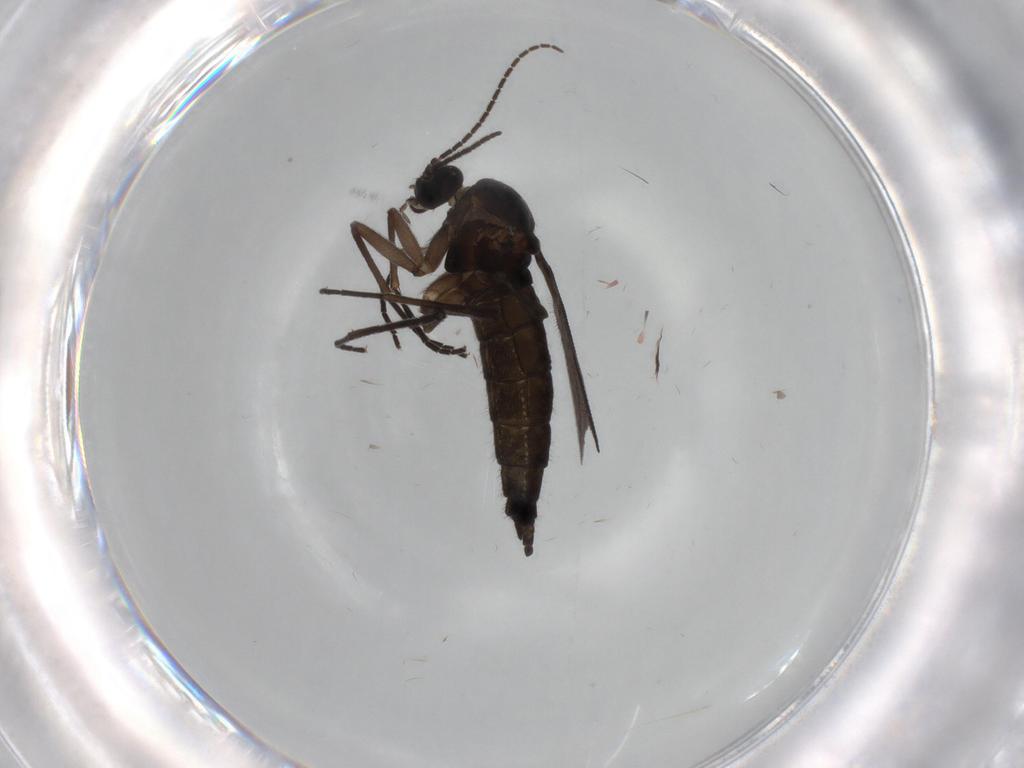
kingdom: Animalia
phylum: Arthropoda
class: Insecta
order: Diptera
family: Sciaridae
